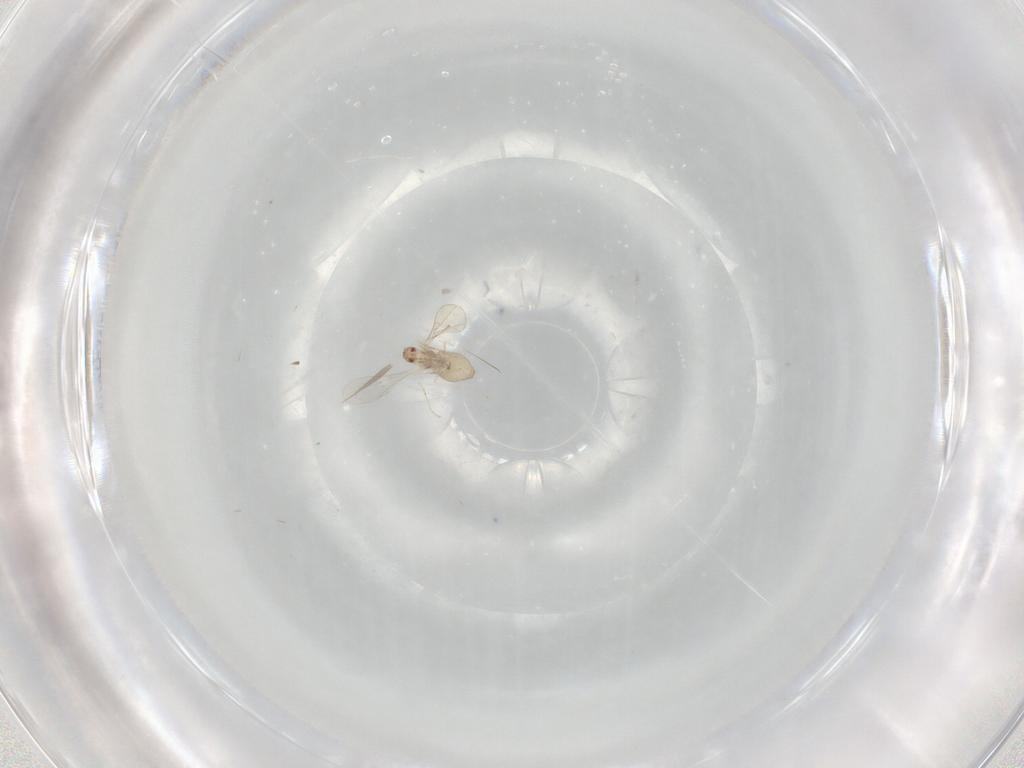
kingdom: Animalia
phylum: Arthropoda
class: Insecta
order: Diptera
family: Cecidomyiidae
